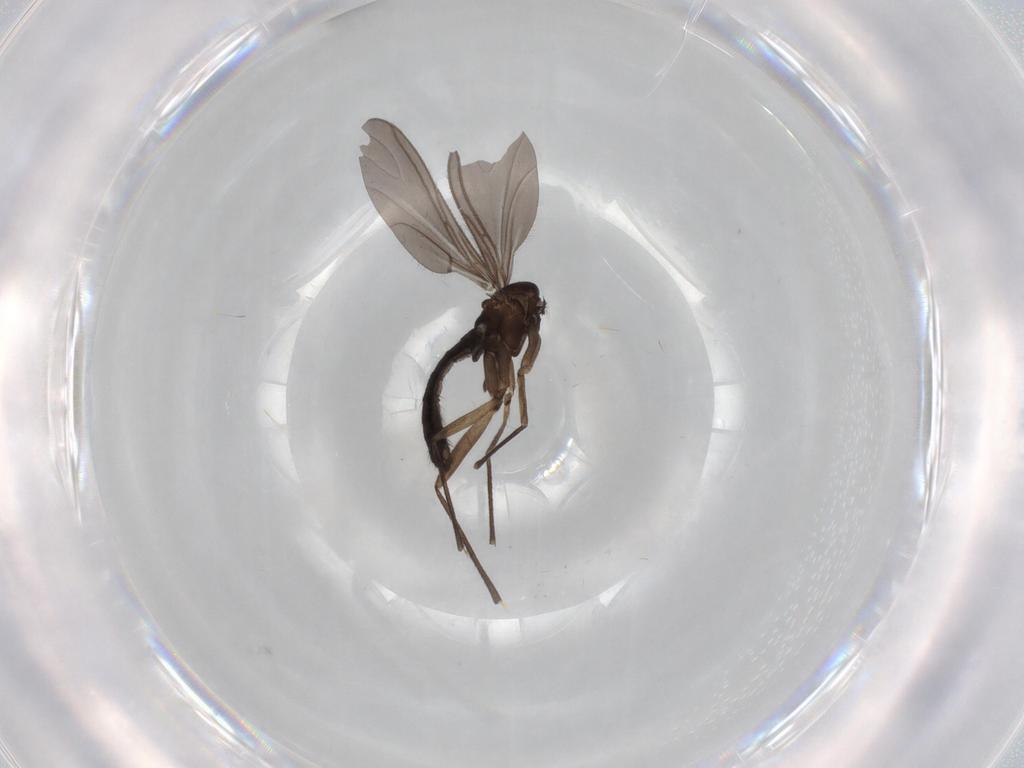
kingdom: Animalia
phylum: Arthropoda
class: Insecta
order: Diptera
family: Sciaridae
